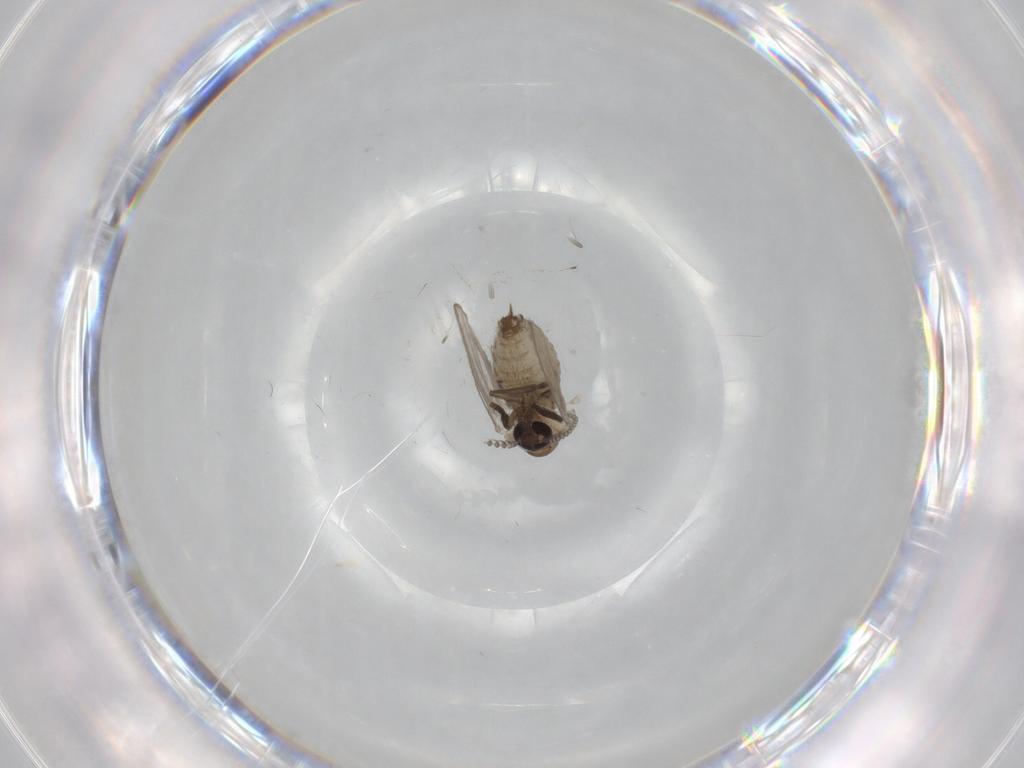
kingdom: Animalia
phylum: Arthropoda
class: Insecta
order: Diptera
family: Psychodidae
